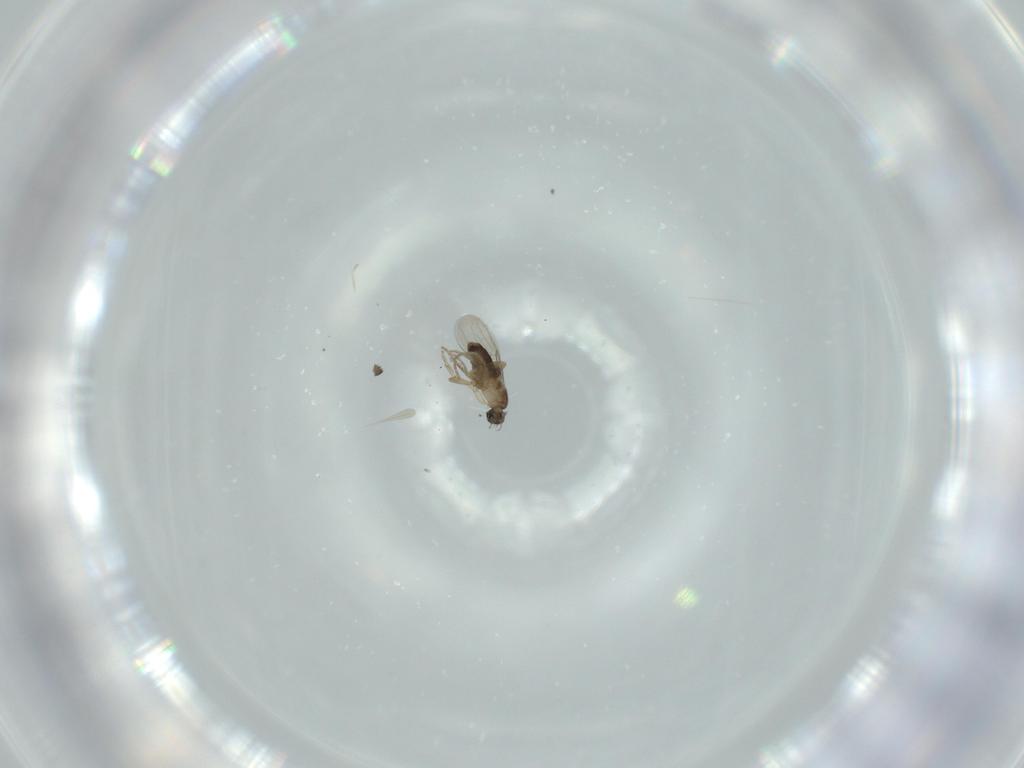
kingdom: Animalia
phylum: Arthropoda
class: Insecta
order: Diptera
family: Phoridae
